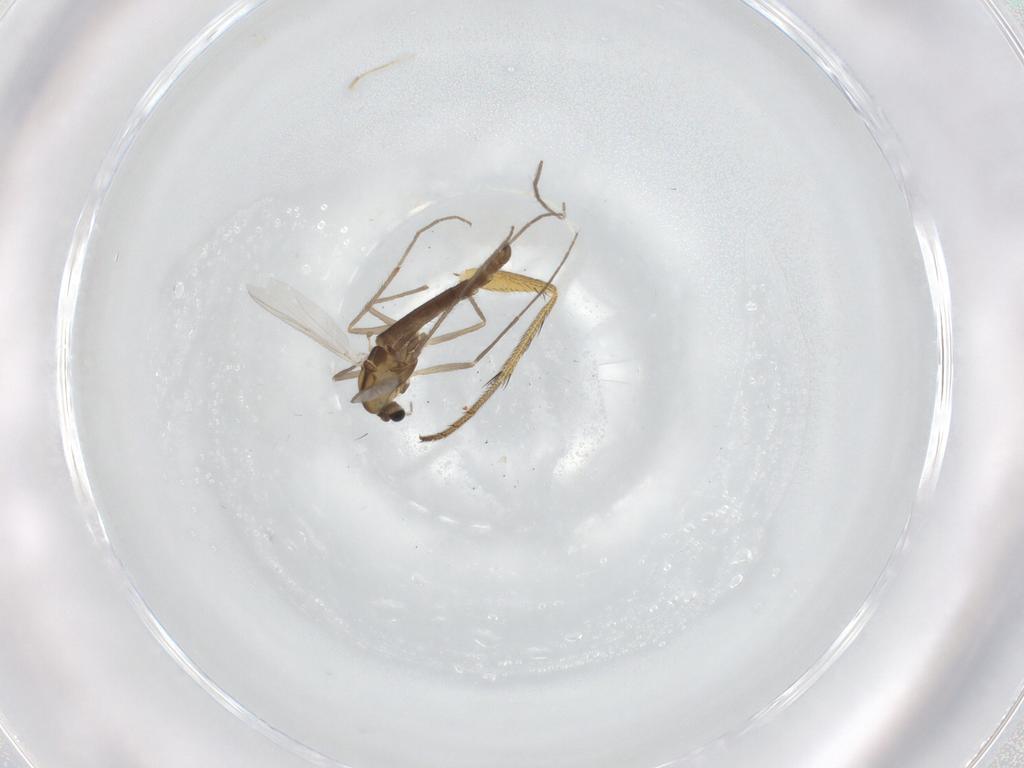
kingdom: Animalia
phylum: Arthropoda
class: Insecta
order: Diptera
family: Chironomidae
